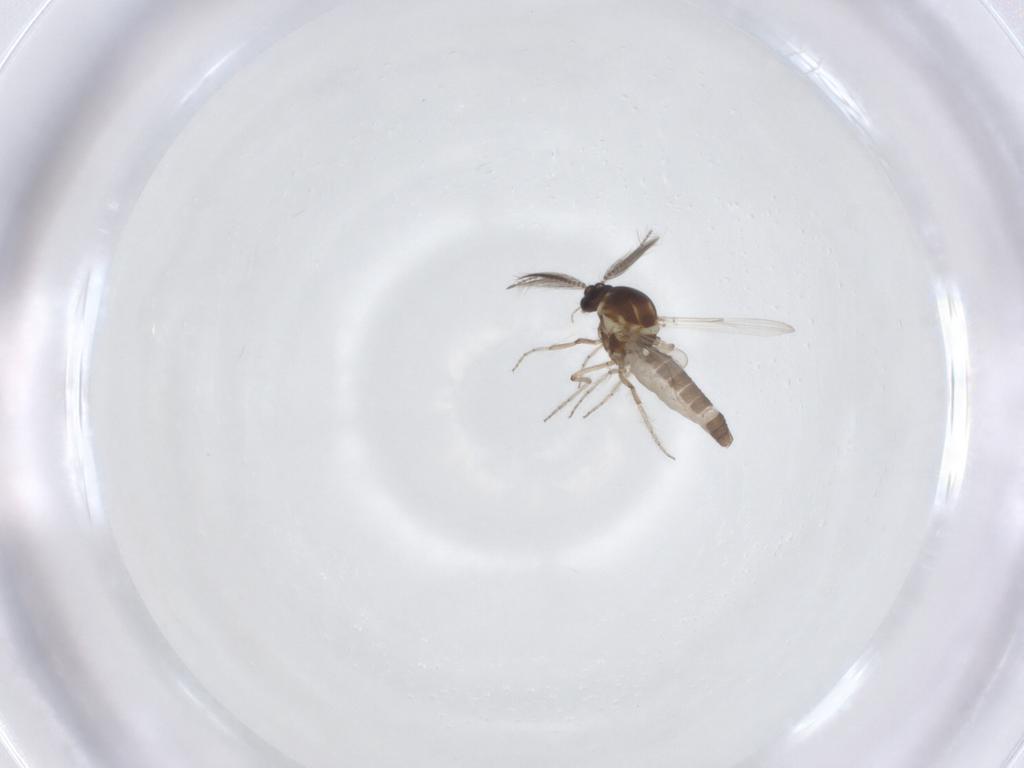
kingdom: Animalia
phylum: Arthropoda
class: Insecta
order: Diptera
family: Ceratopogonidae
